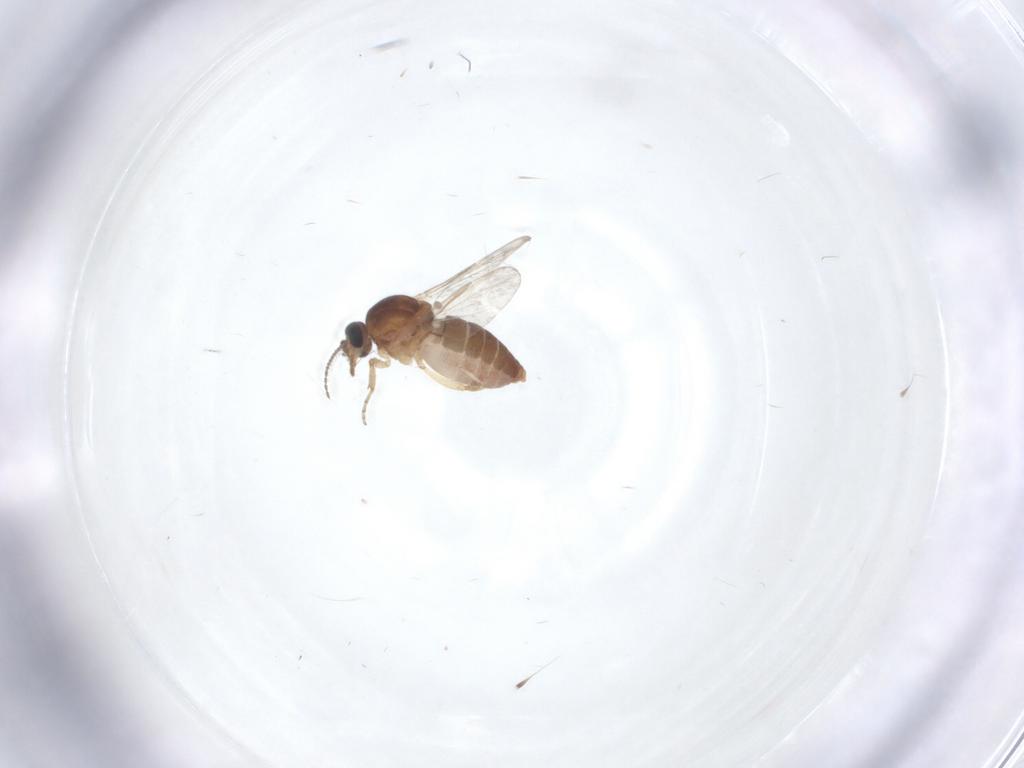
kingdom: Animalia
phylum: Arthropoda
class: Insecta
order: Diptera
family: Ceratopogonidae
